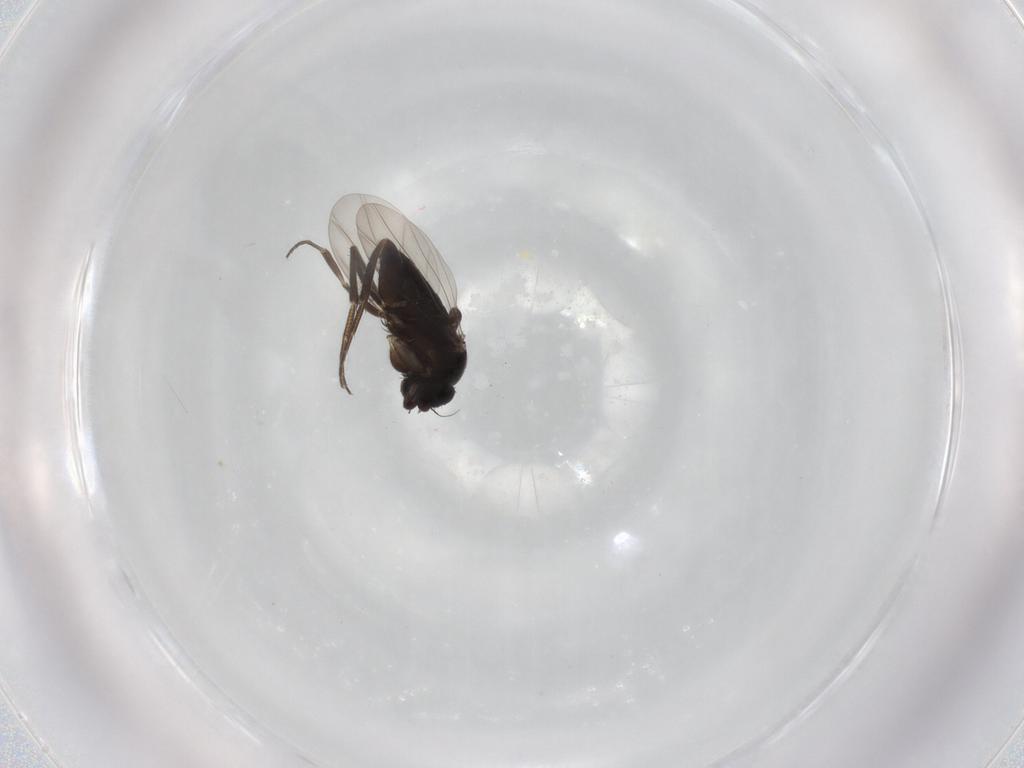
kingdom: Animalia
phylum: Arthropoda
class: Insecta
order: Diptera
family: Phoridae
